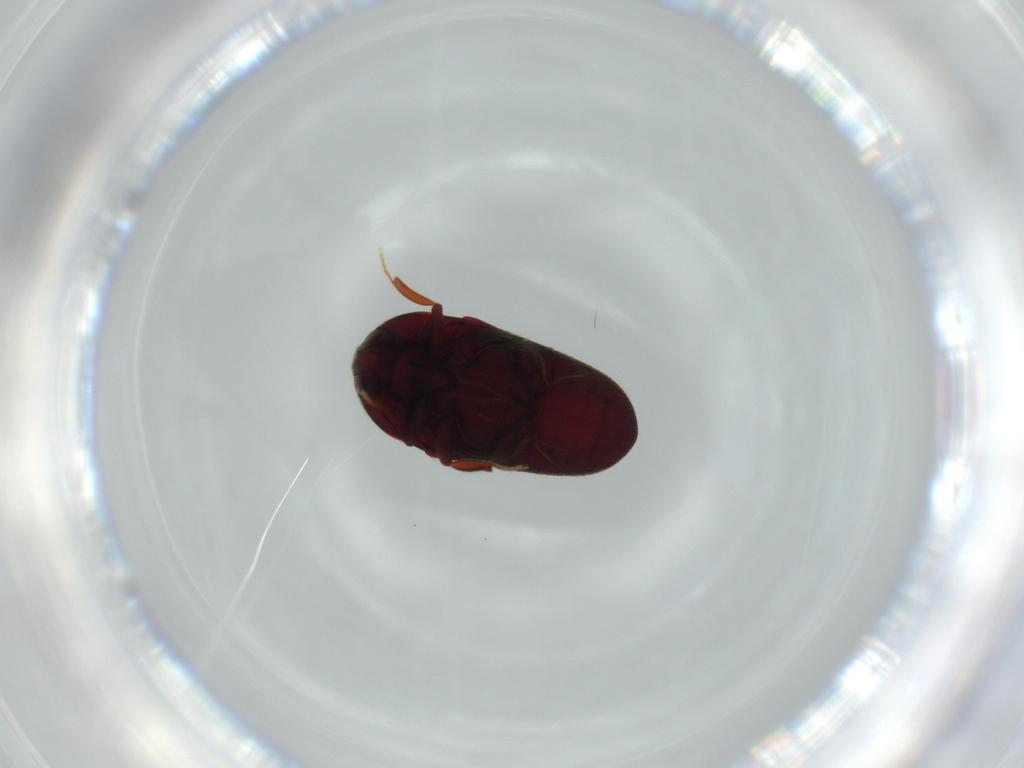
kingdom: Animalia
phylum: Arthropoda
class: Insecta
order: Coleoptera
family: Throscidae
